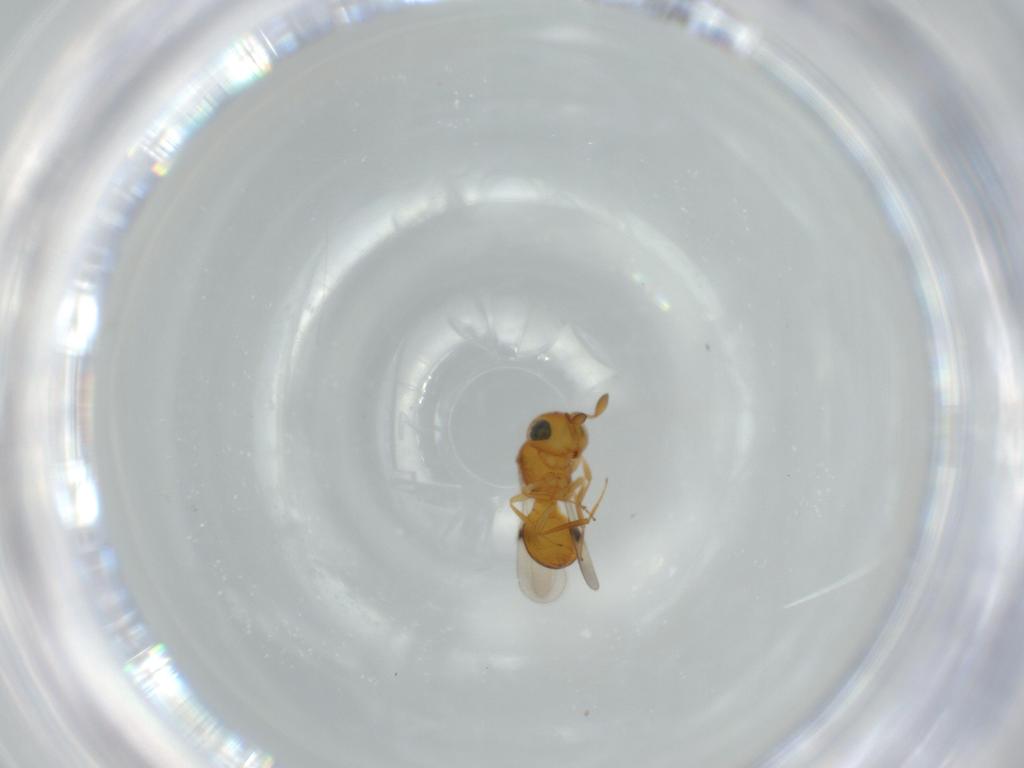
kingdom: Animalia
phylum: Arthropoda
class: Insecta
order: Hymenoptera
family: Scelionidae
